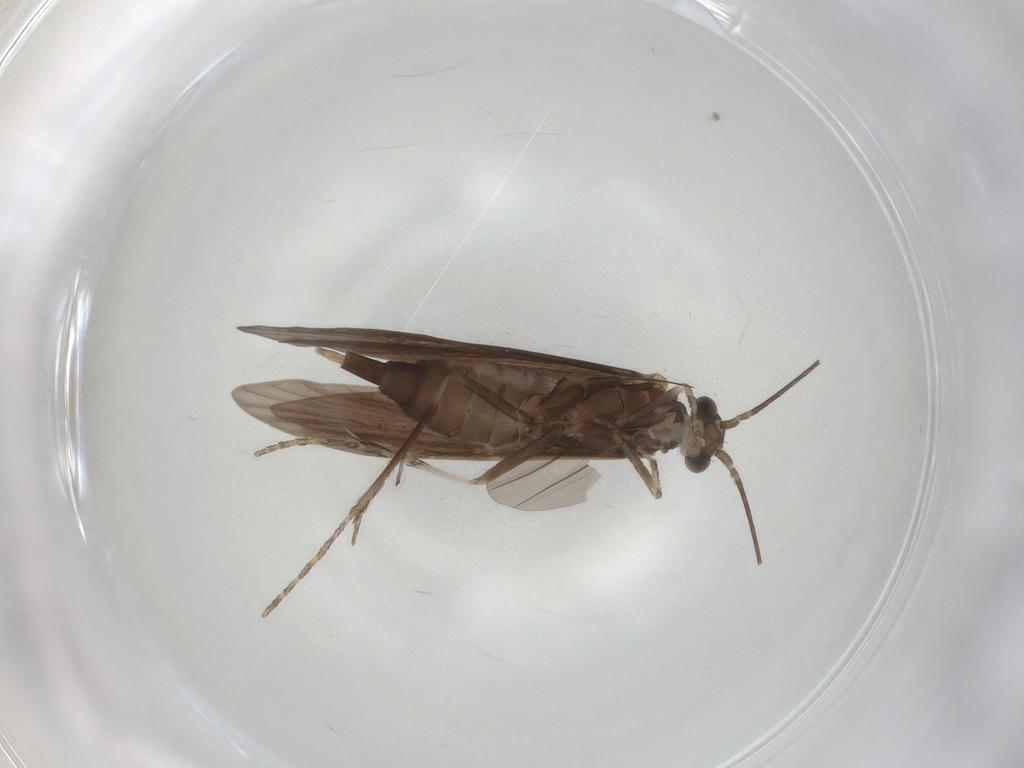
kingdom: Animalia
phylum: Arthropoda
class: Insecta
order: Trichoptera
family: Xiphocentronidae
